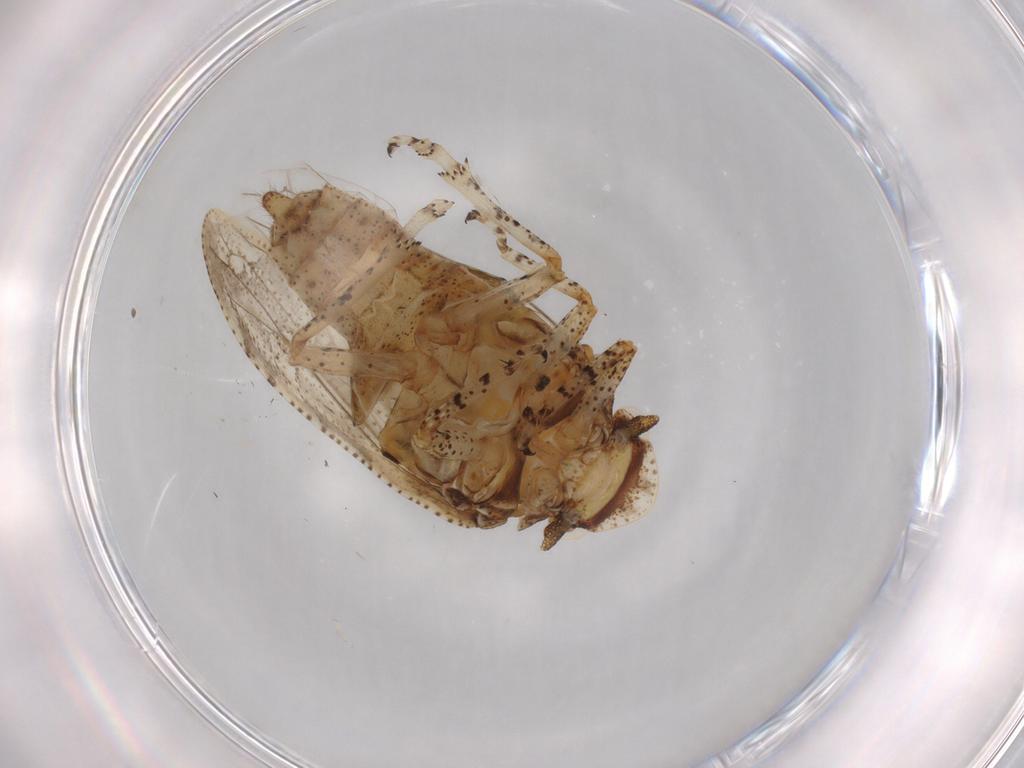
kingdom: Animalia
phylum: Arthropoda
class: Insecta
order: Hemiptera
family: Tettigometridae
